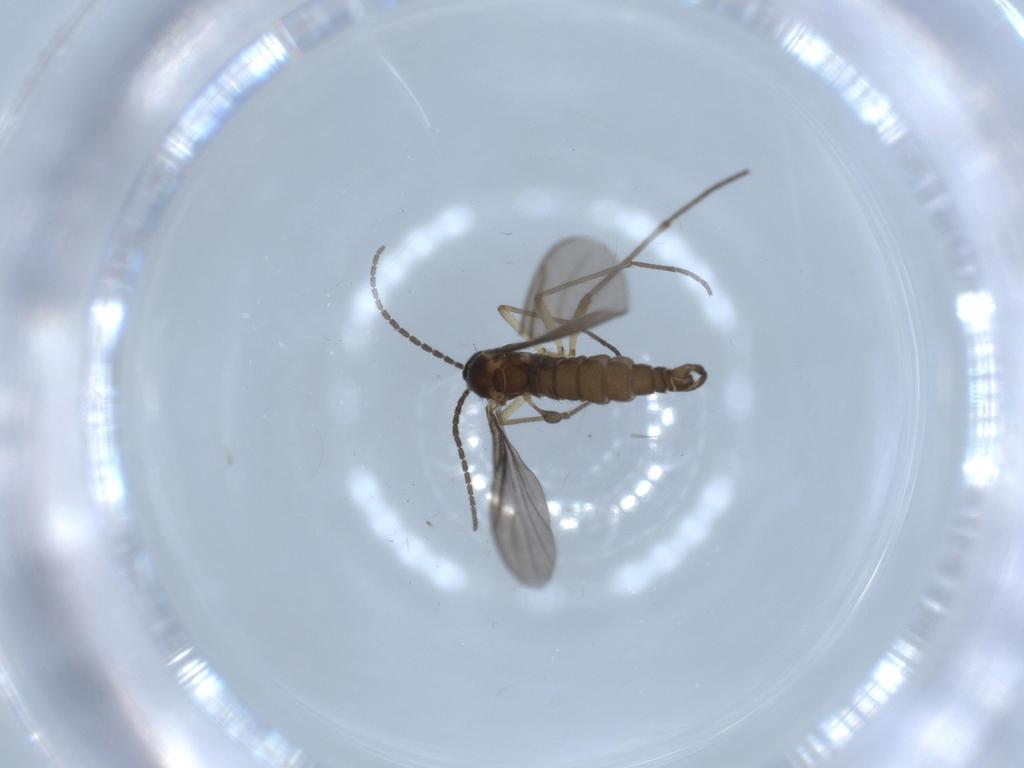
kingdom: Animalia
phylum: Arthropoda
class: Insecta
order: Diptera
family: Sciaridae
